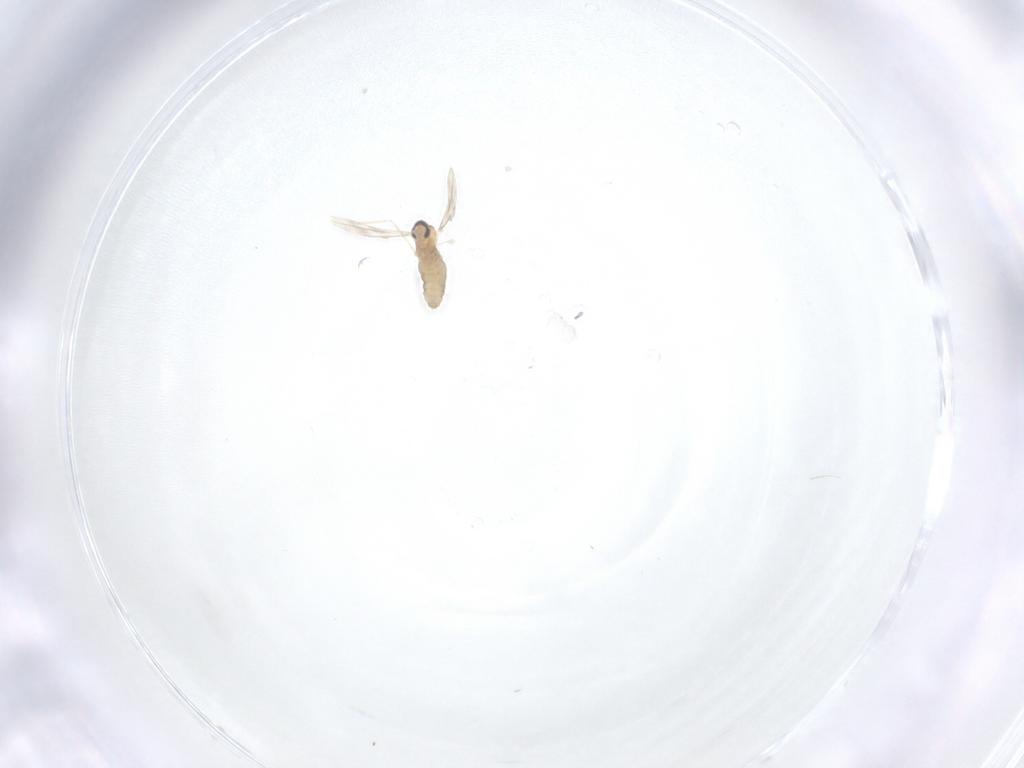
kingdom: Animalia
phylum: Arthropoda
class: Insecta
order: Diptera
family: Cecidomyiidae
